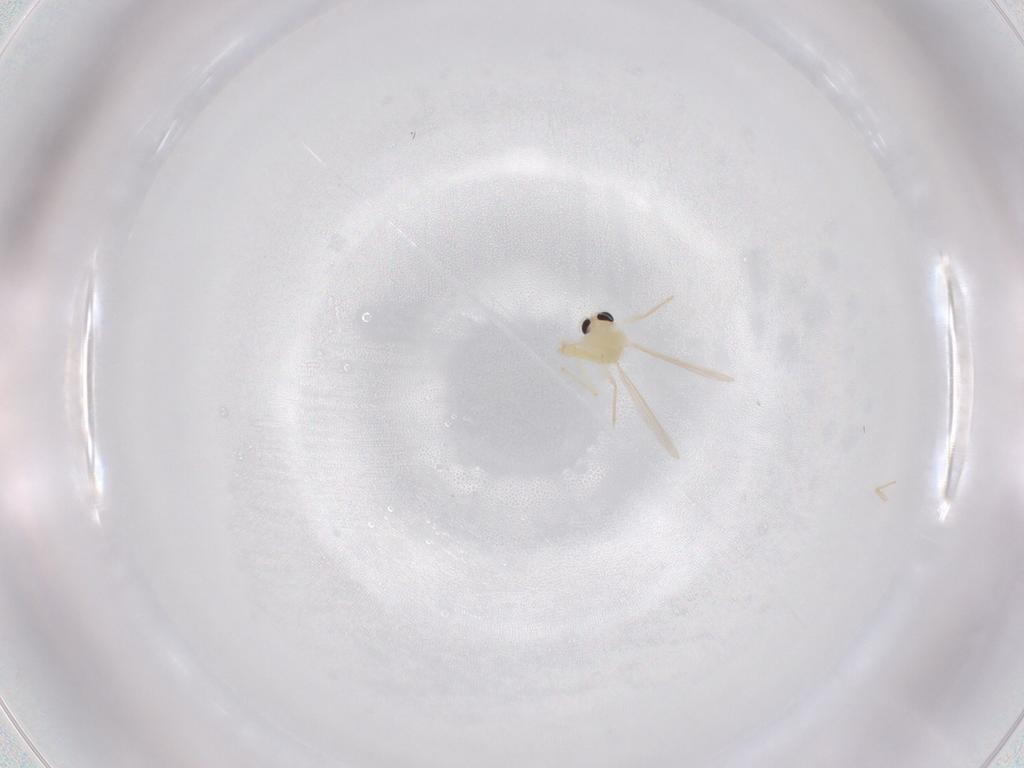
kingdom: Animalia
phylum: Arthropoda
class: Insecta
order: Diptera
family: Chironomidae
